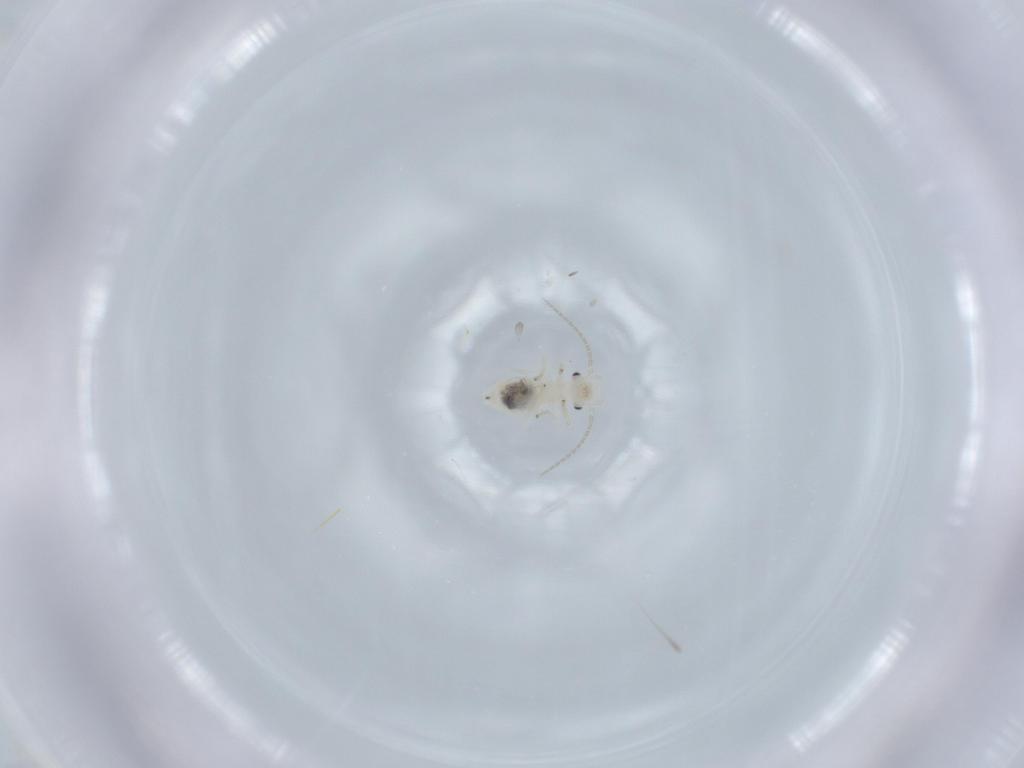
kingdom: Animalia
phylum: Arthropoda
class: Insecta
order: Psocodea
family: Caeciliusidae
